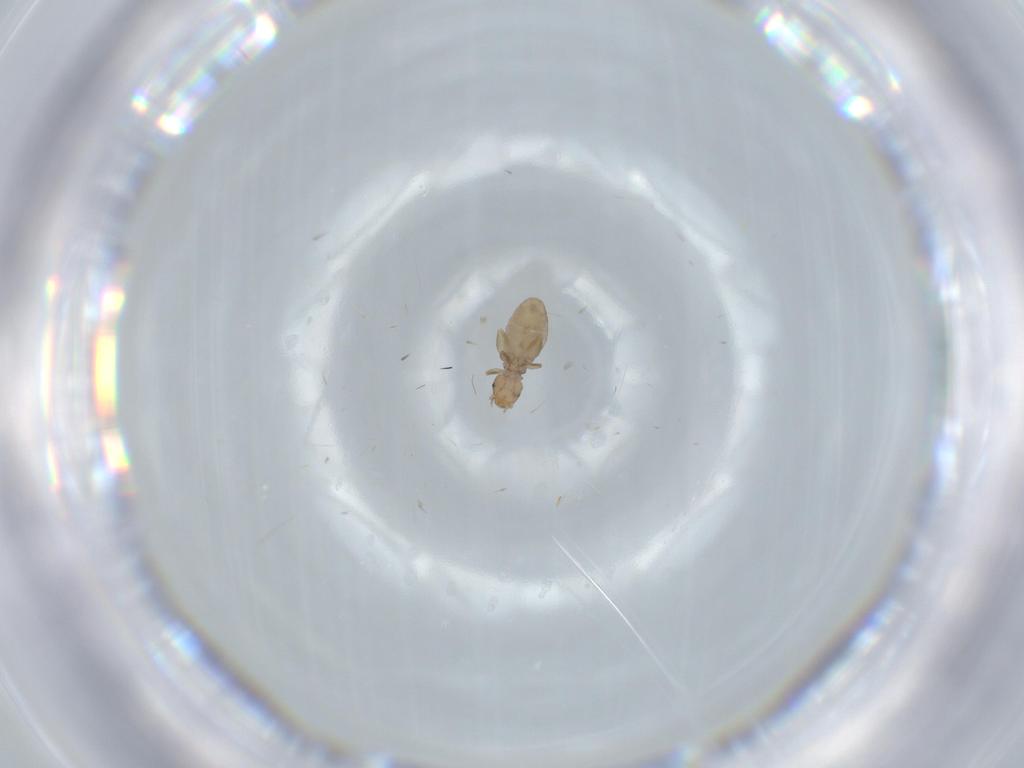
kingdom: Animalia
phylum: Arthropoda
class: Insecta
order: Psocodea
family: Liposcelididae
